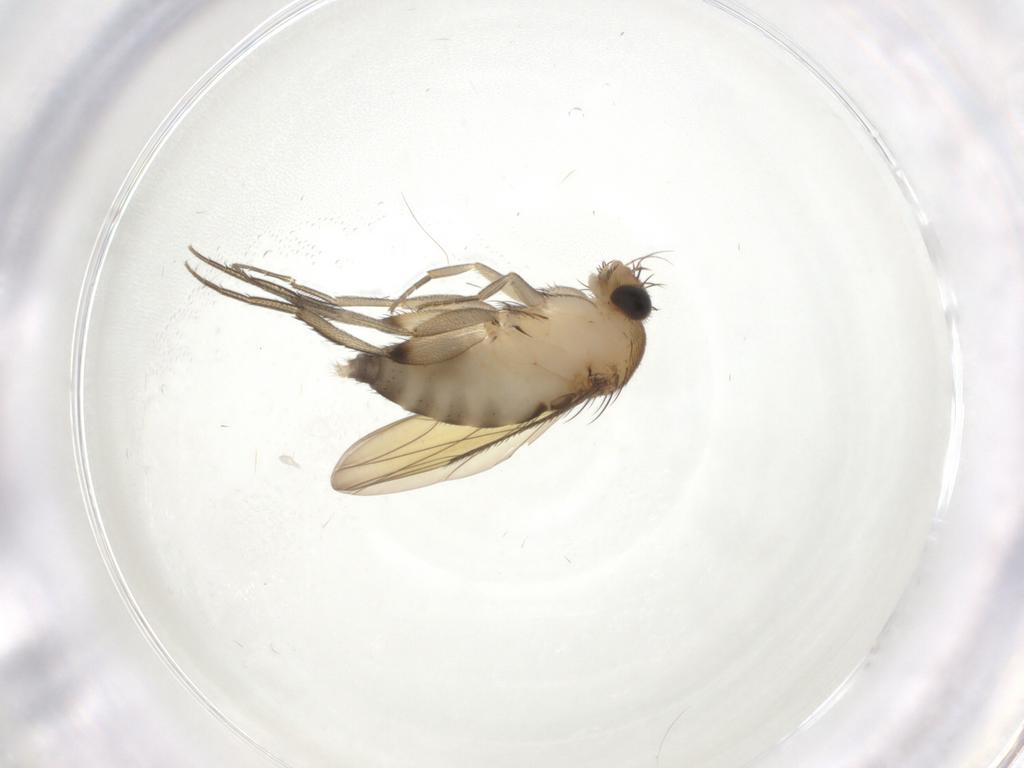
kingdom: Animalia
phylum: Arthropoda
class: Insecta
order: Diptera
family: Phoridae
